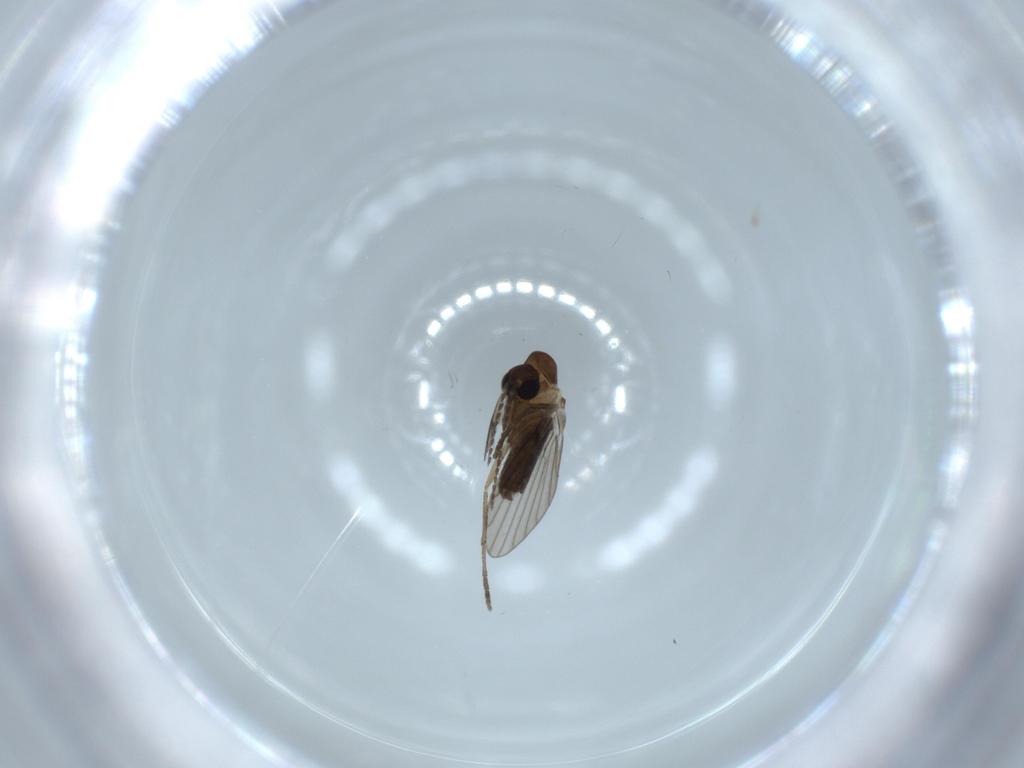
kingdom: Animalia
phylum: Arthropoda
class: Insecta
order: Diptera
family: Psychodidae
